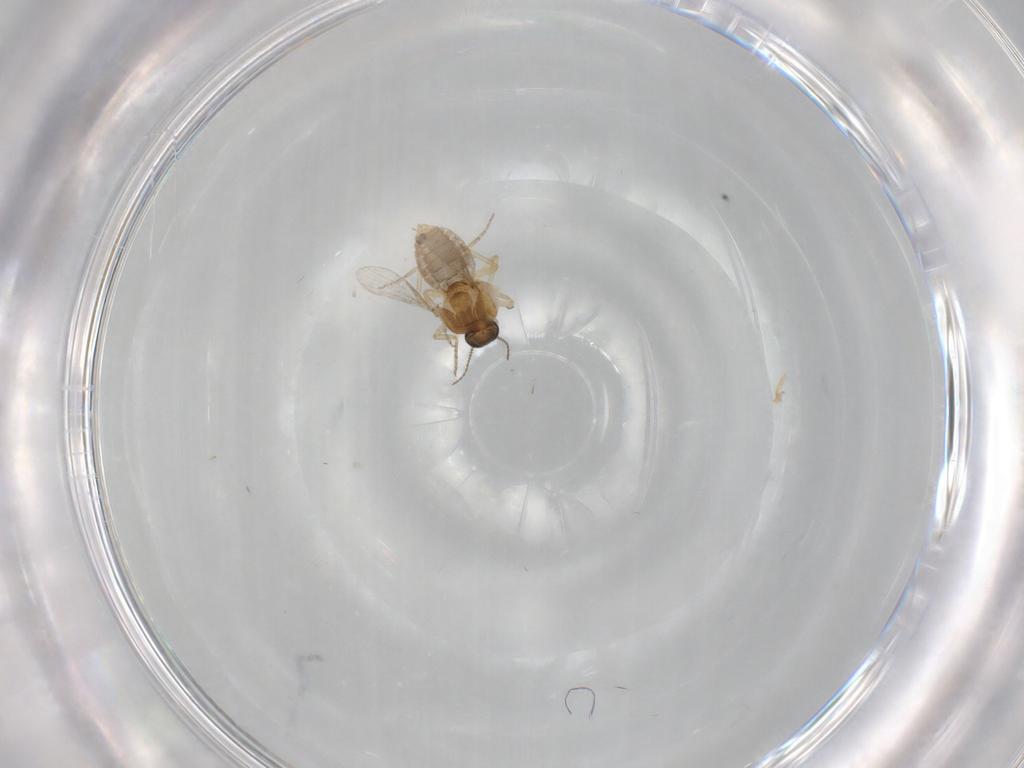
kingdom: Animalia
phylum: Arthropoda
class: Insecta
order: Diptera
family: Ceratopogonidae
